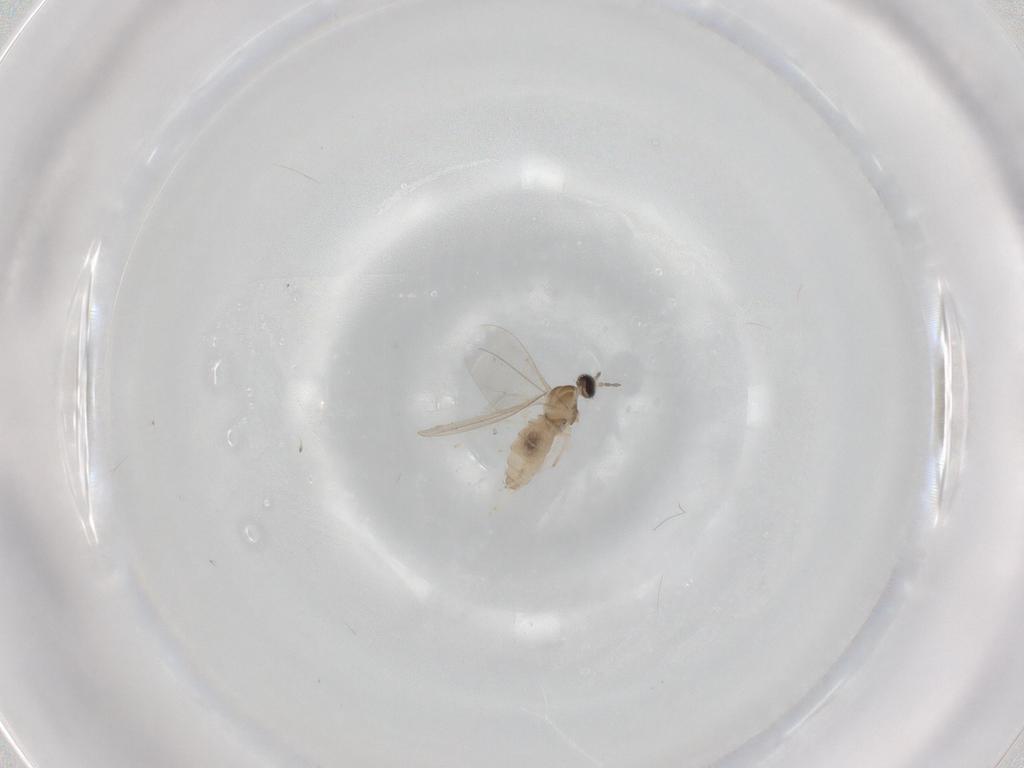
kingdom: Animalia
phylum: Arthropoda
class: Insecta
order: Diptera
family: Cecidomyiidae
